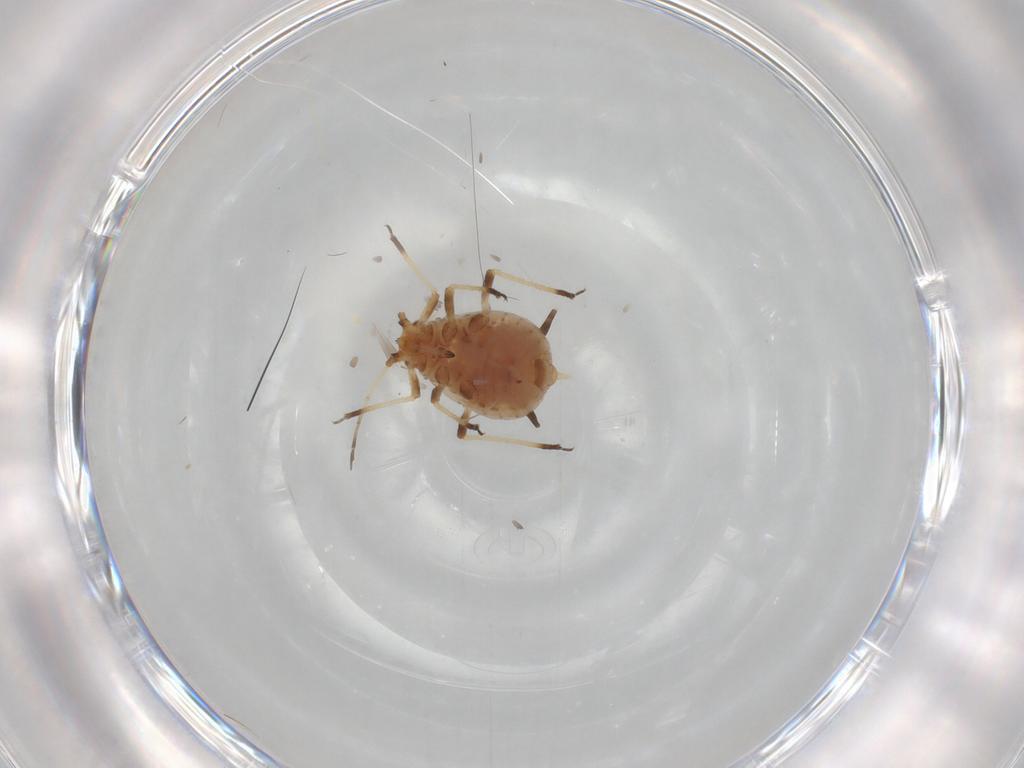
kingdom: Animalia
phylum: Arthropoda
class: Insecta
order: Hemiptera
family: Aphididae
